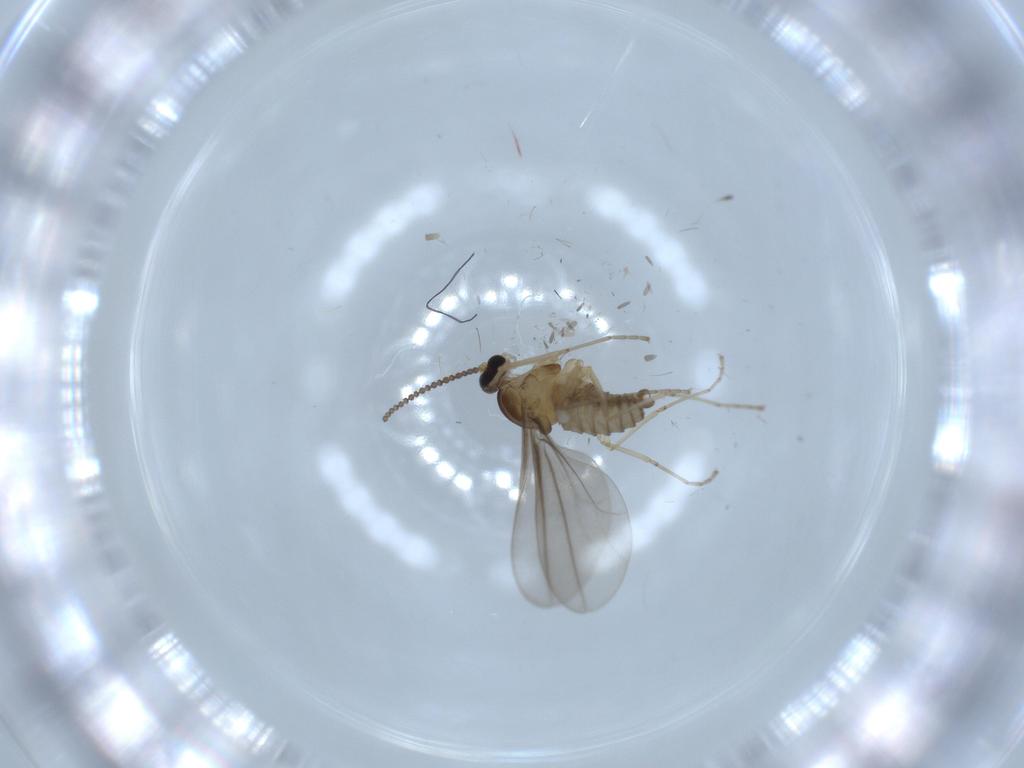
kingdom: Animalia
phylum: Arthropoda
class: Insecta
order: Diptera
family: Cecidomyiidae
